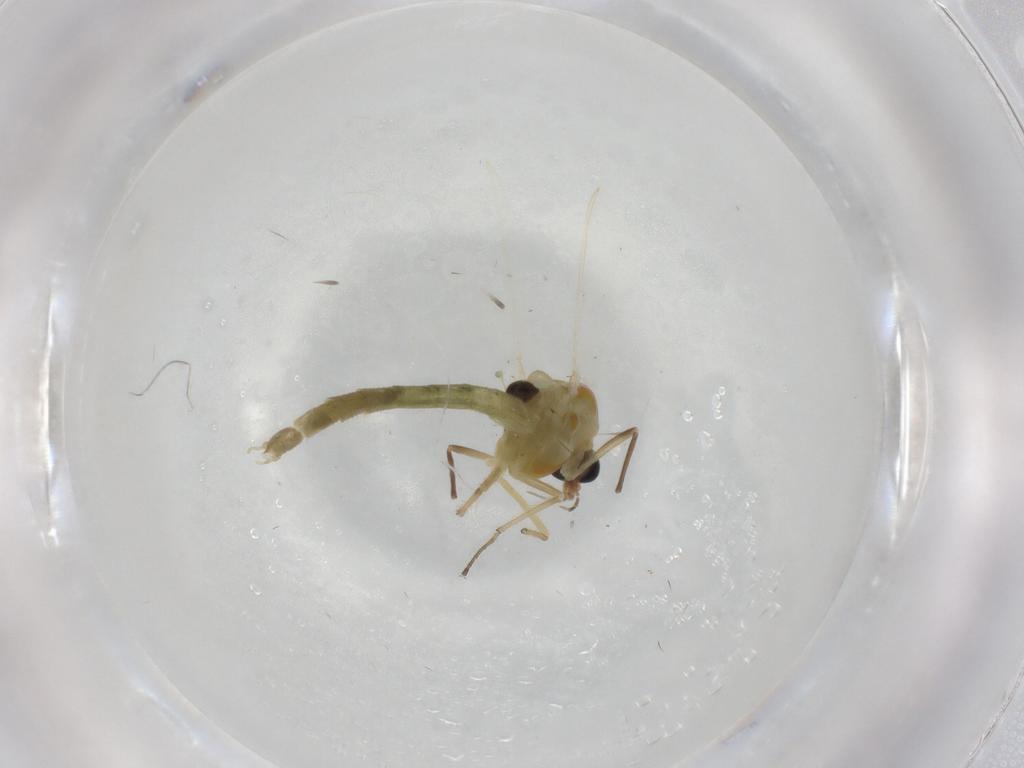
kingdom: Animalia
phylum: Arthropoda
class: Insecta
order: Diptera
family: Chironomidae
